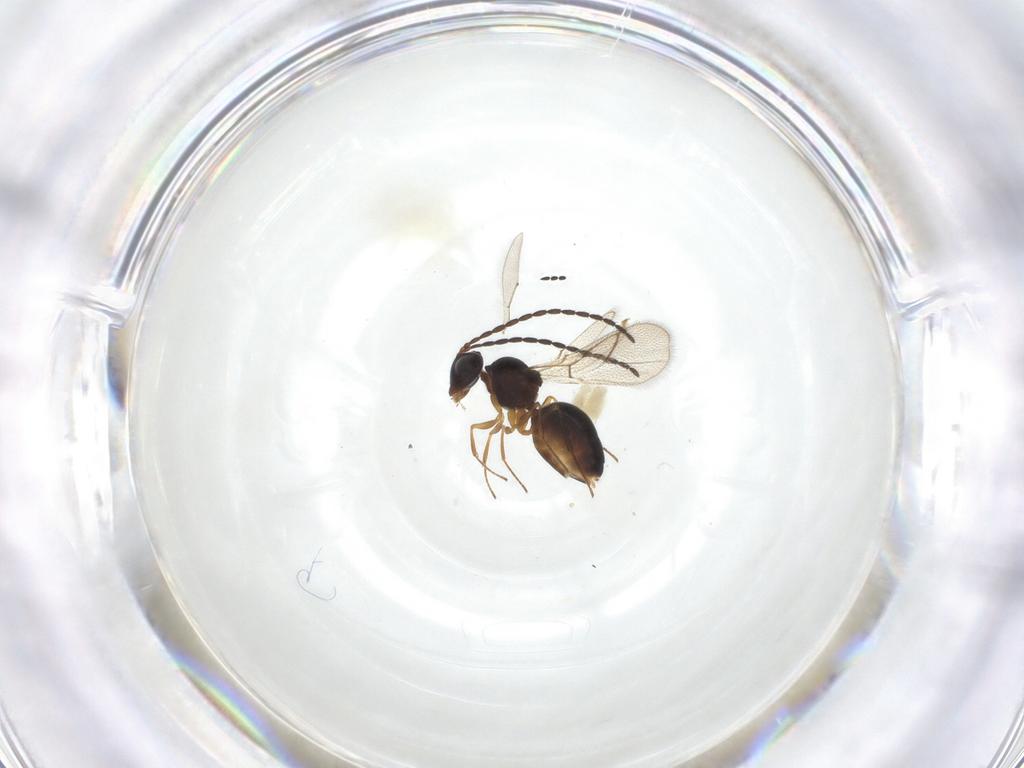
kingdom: Animalia
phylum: Arthropoda
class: Insecta
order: Hymenoptera
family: Figitidae
